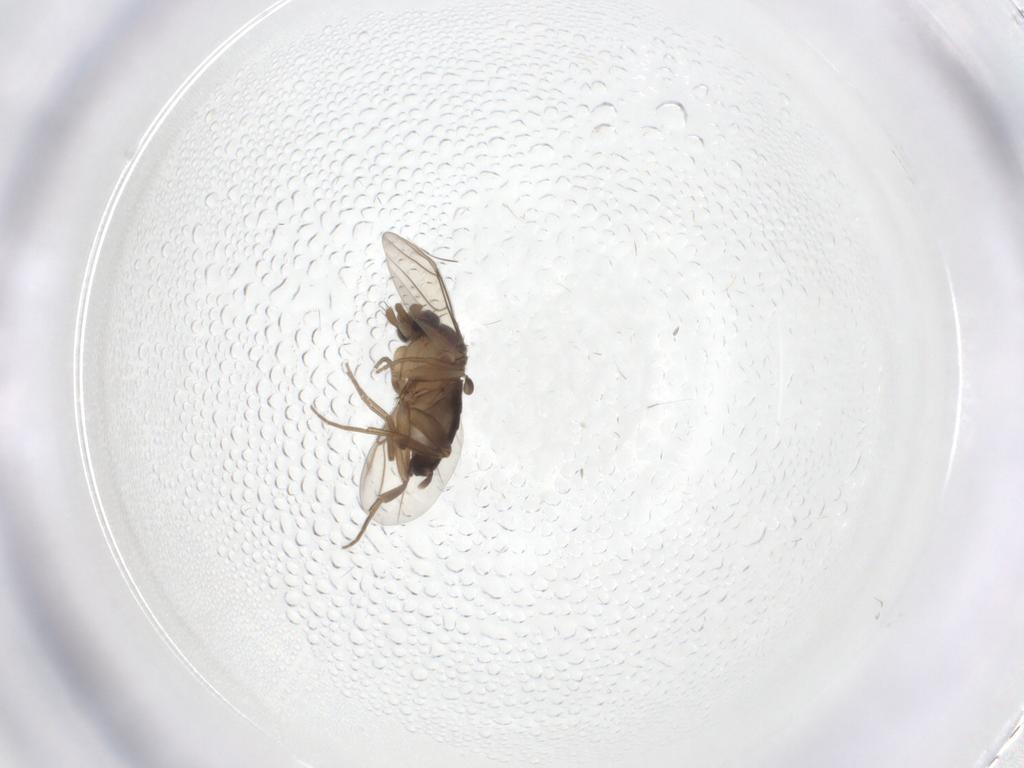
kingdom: Animalia
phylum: Arthropoda
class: Insecta
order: Diptera
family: Phoridae
